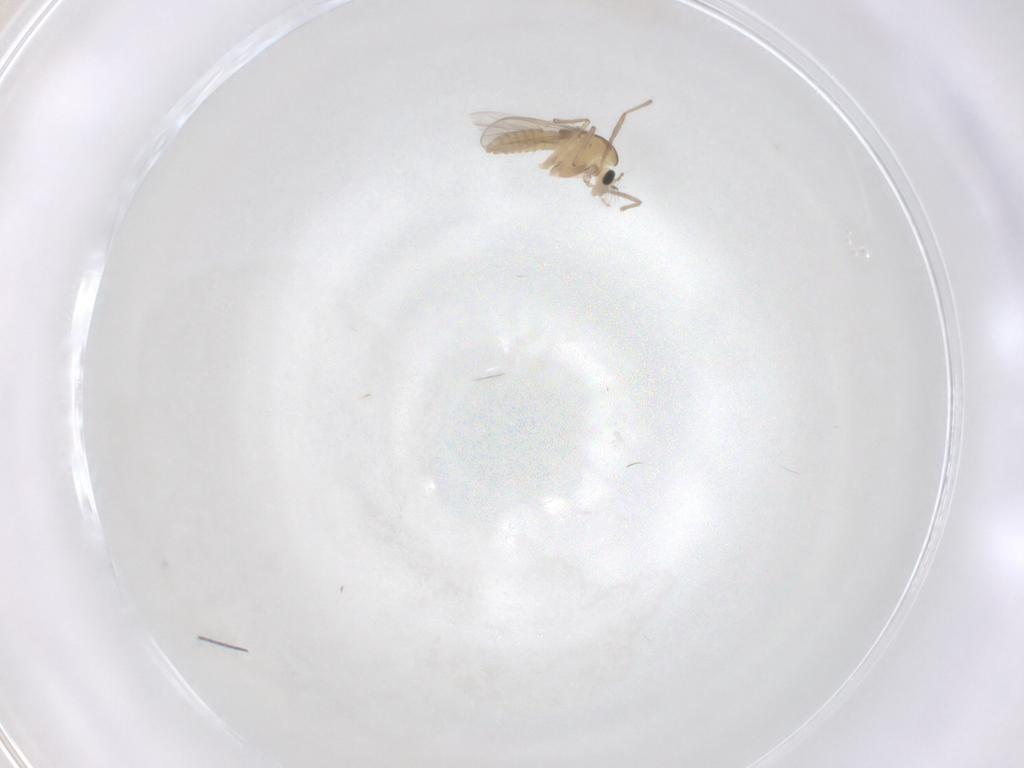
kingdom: Animalia
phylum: Arthropoda
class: Insecta
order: Diptera
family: Chironomidae
